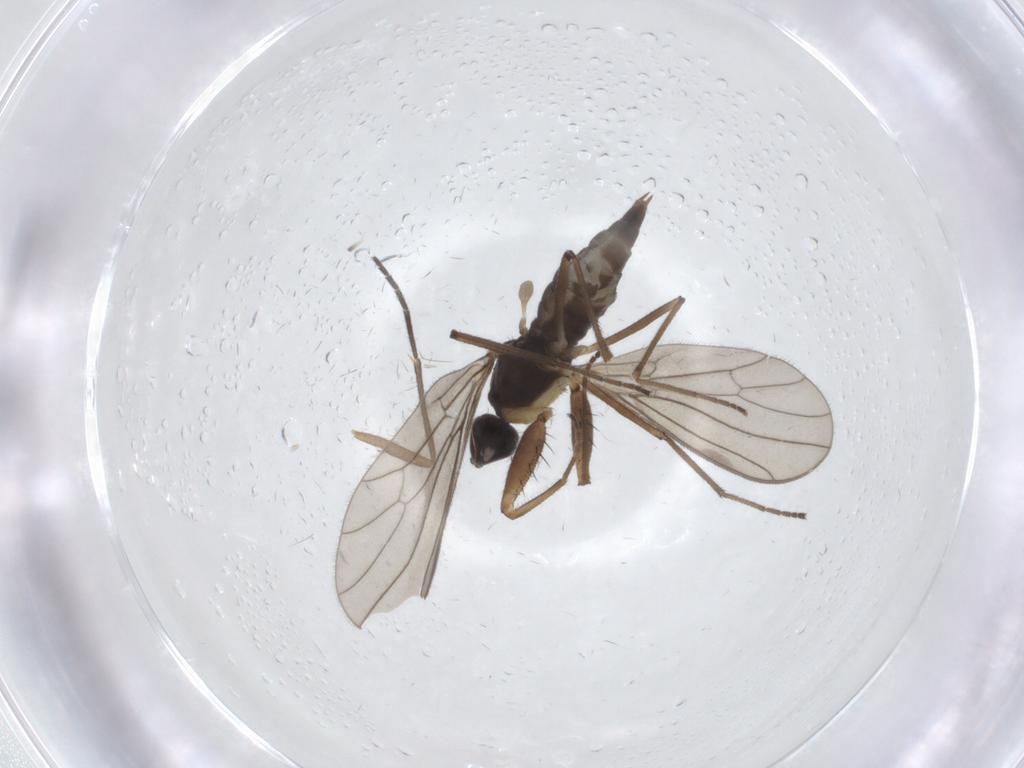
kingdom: Animalia
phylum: Arthropoda
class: Insecta
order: Diptera
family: Empididae
